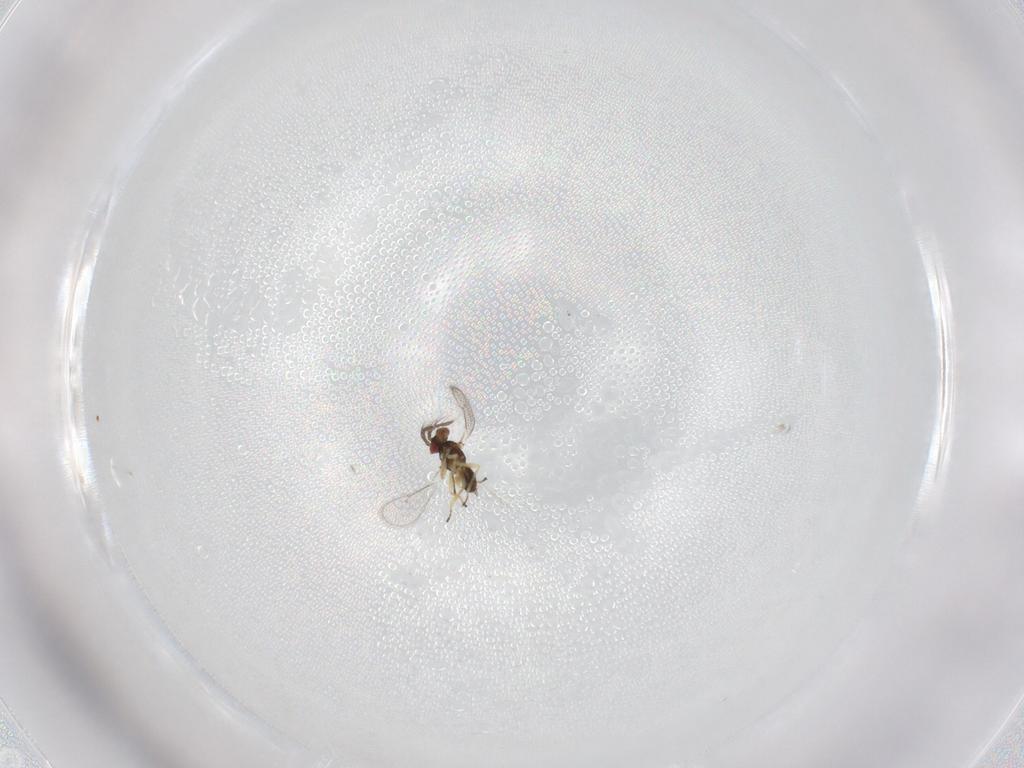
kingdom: Animalia
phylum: Arthropoda
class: Insecta
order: Hymenoptera
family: Eulophidae
